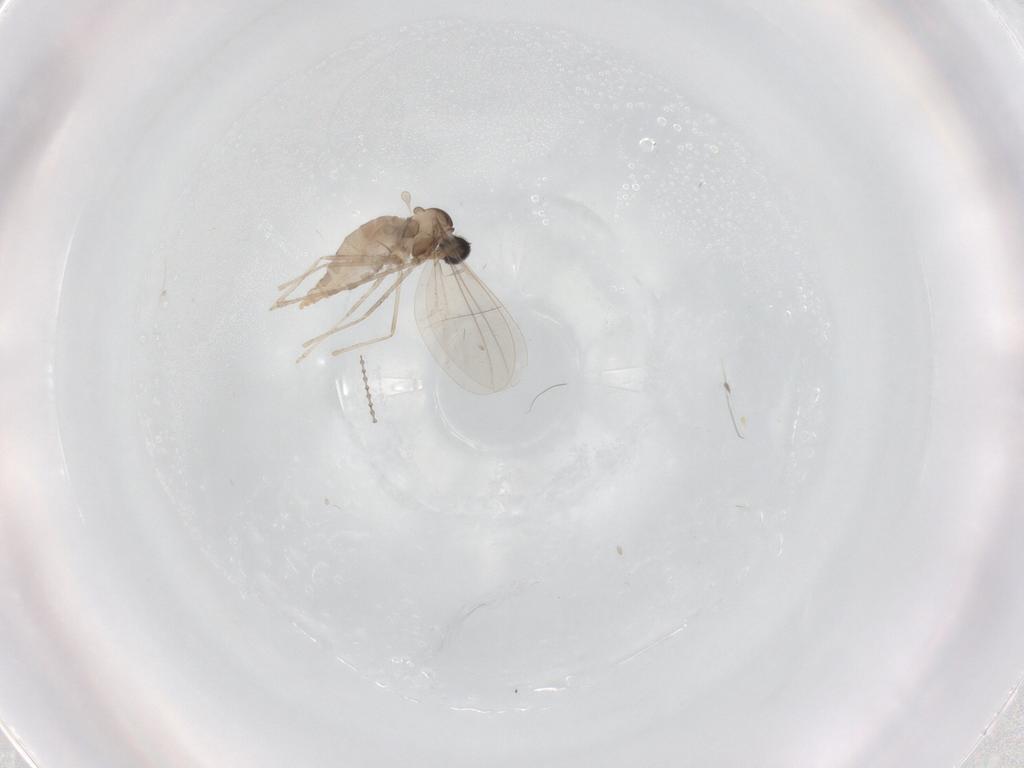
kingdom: Animalia
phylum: Arthropoda
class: Insecta
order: Diptera
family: Cecidomyiidae
